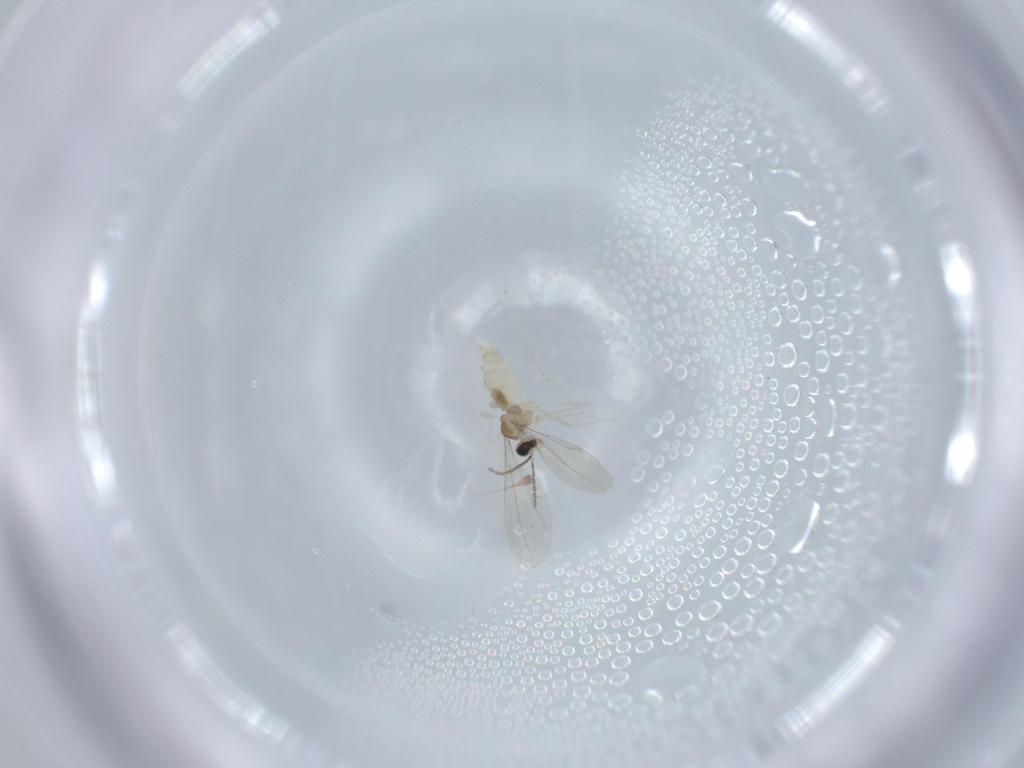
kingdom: Animalia
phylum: Arthropoda
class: Insecta
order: Diptera
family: Cecidomyiidae
